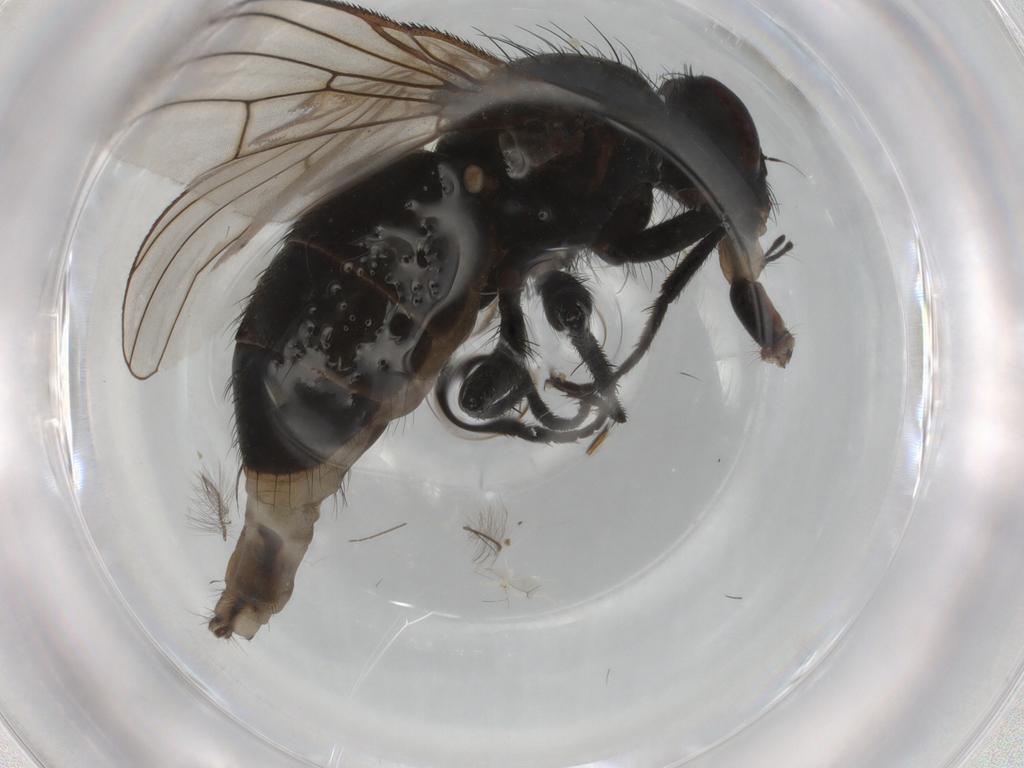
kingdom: Animalia
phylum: Arthropoda
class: Insecta
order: Diptera
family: Muscidae
